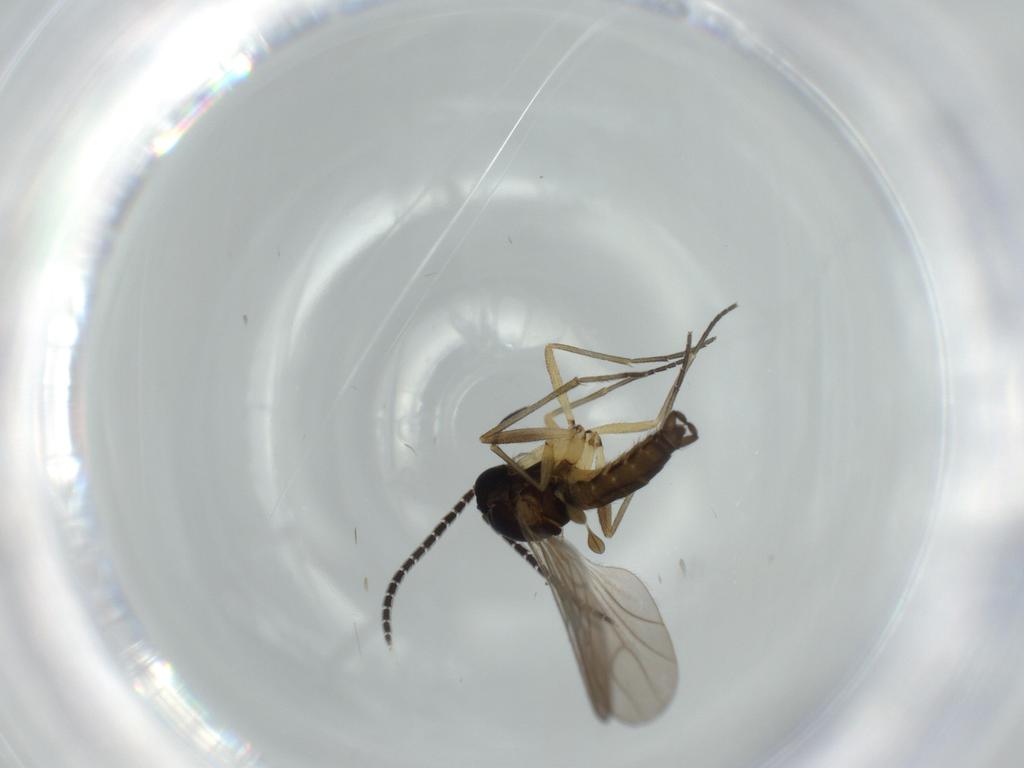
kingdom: Animalia
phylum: Arthropoda
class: Insecta
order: Diptera
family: Sciaridae
